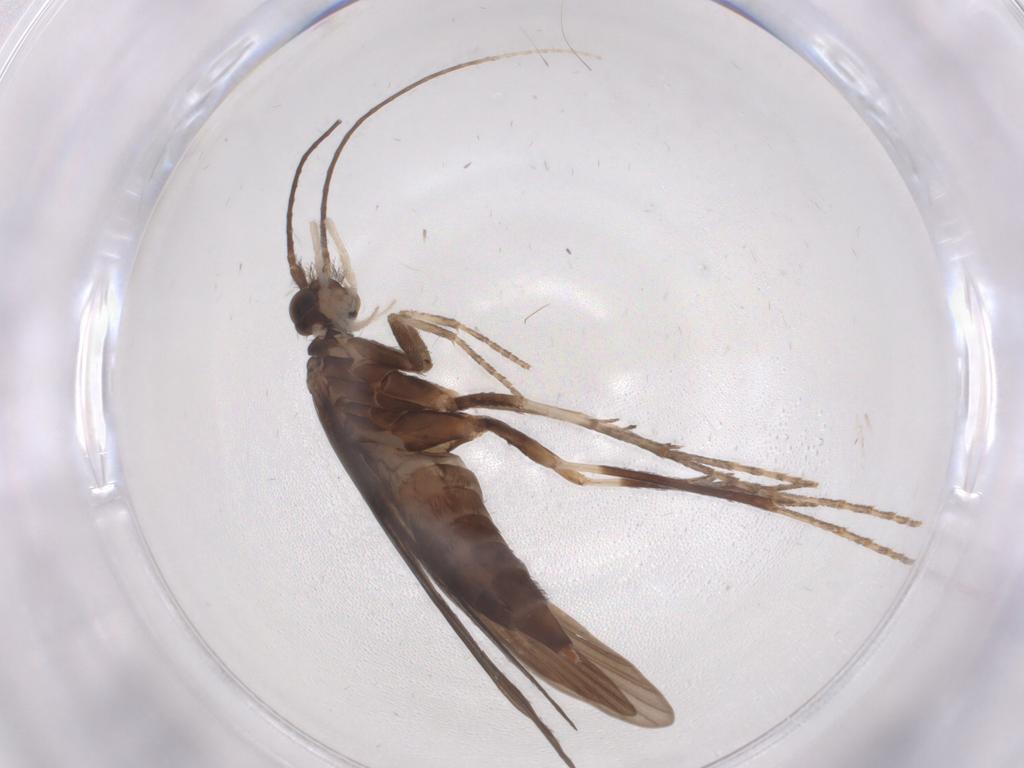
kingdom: Animalia
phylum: Arthropoda
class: Insecta
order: Trichoptera
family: Xiphocentronidae
